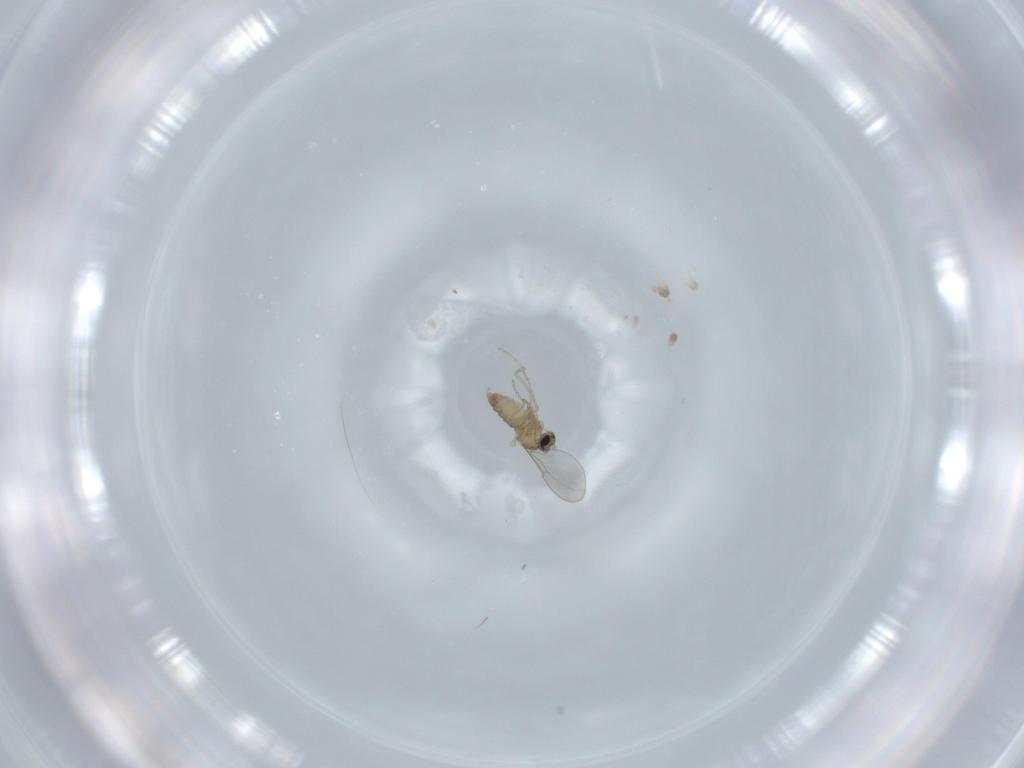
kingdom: Animalia
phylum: Arthropoda
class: Insecta
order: Diptera
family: Cecidomyiidae
